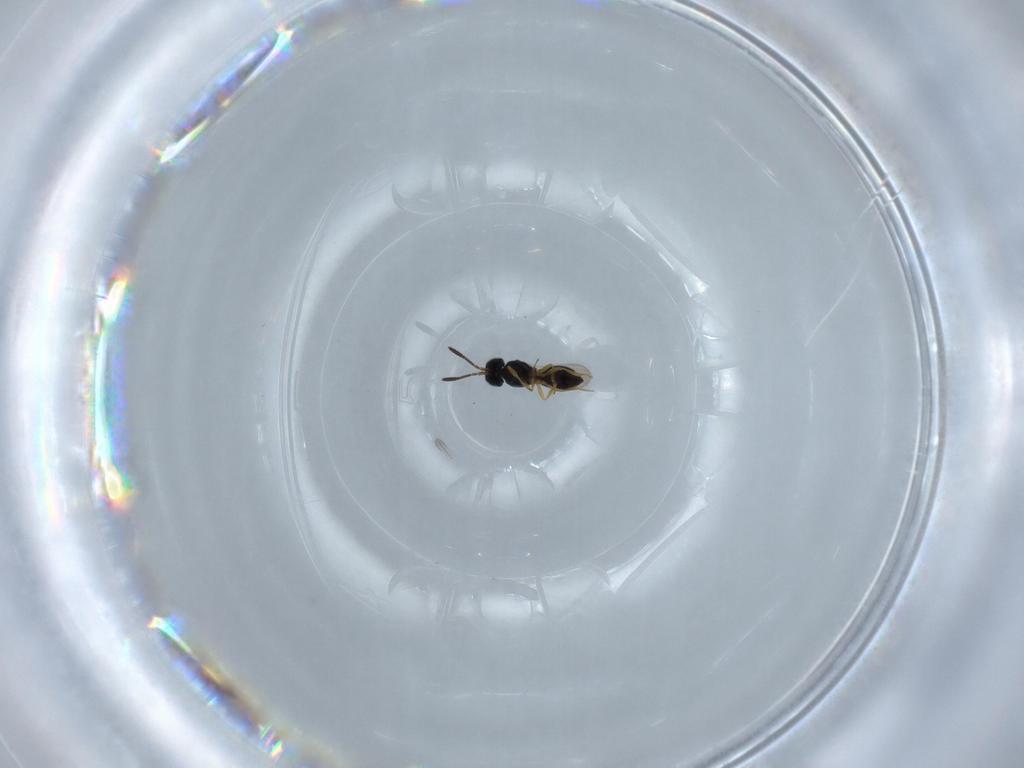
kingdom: Animalia
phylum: Arthropoda
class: Insecta
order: Hymenoptera
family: Scelionidae
